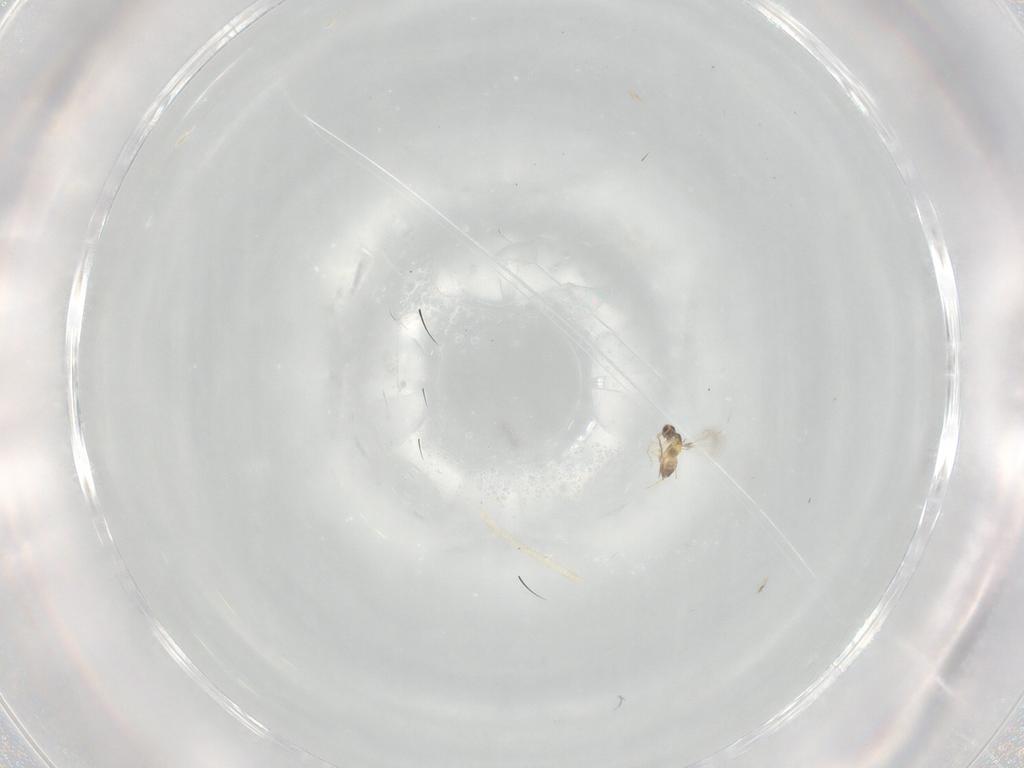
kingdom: Animalia
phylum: Arthropoda
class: Insecta
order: Hymenoptera
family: Mymaridae
